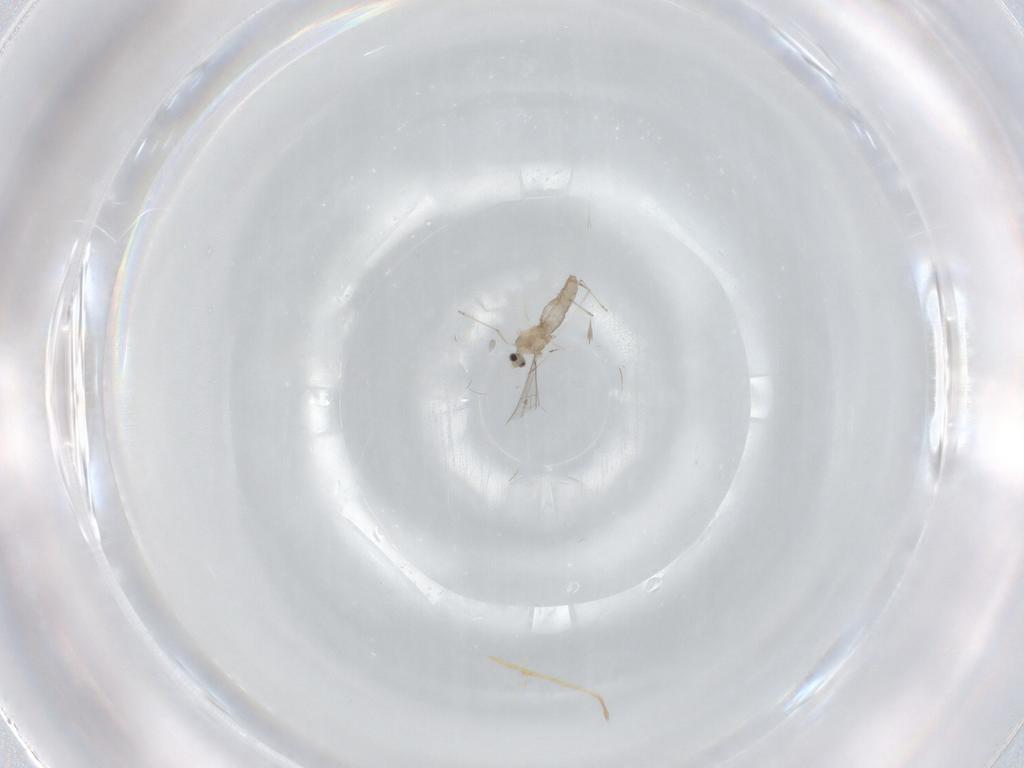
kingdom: Animalia
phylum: Arthropoda
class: Insecta
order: Diptera
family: Cecidomyiidae
